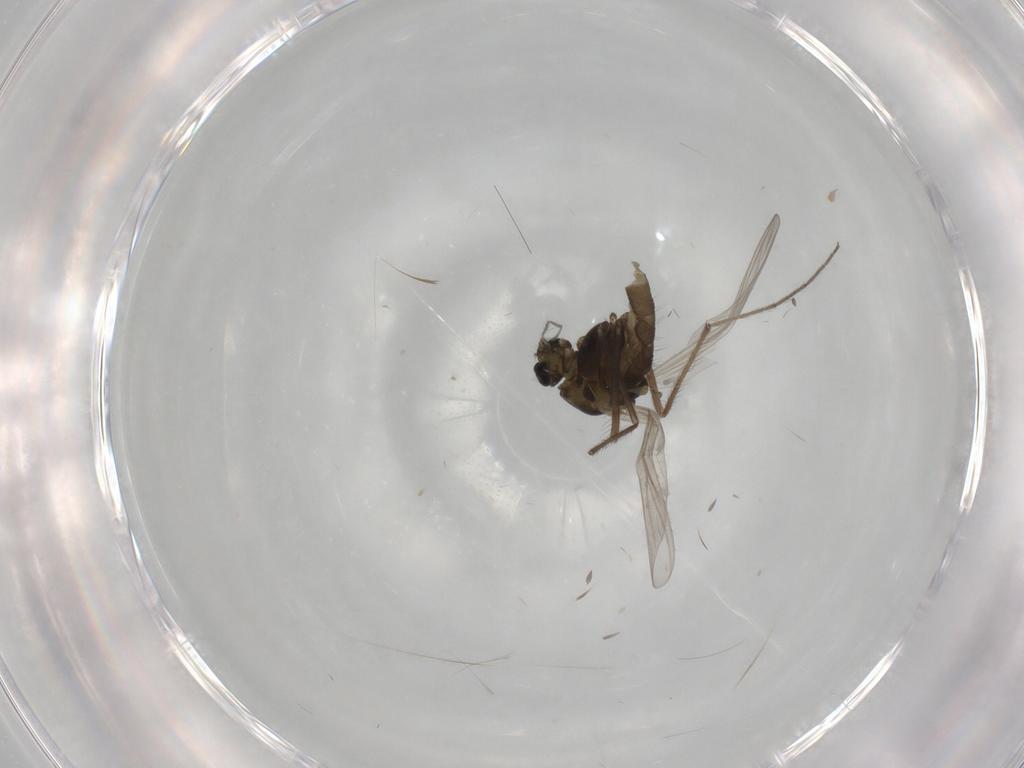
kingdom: Animalia
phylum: Arthropoda
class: Insecta
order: Diptera
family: Chironomidae
